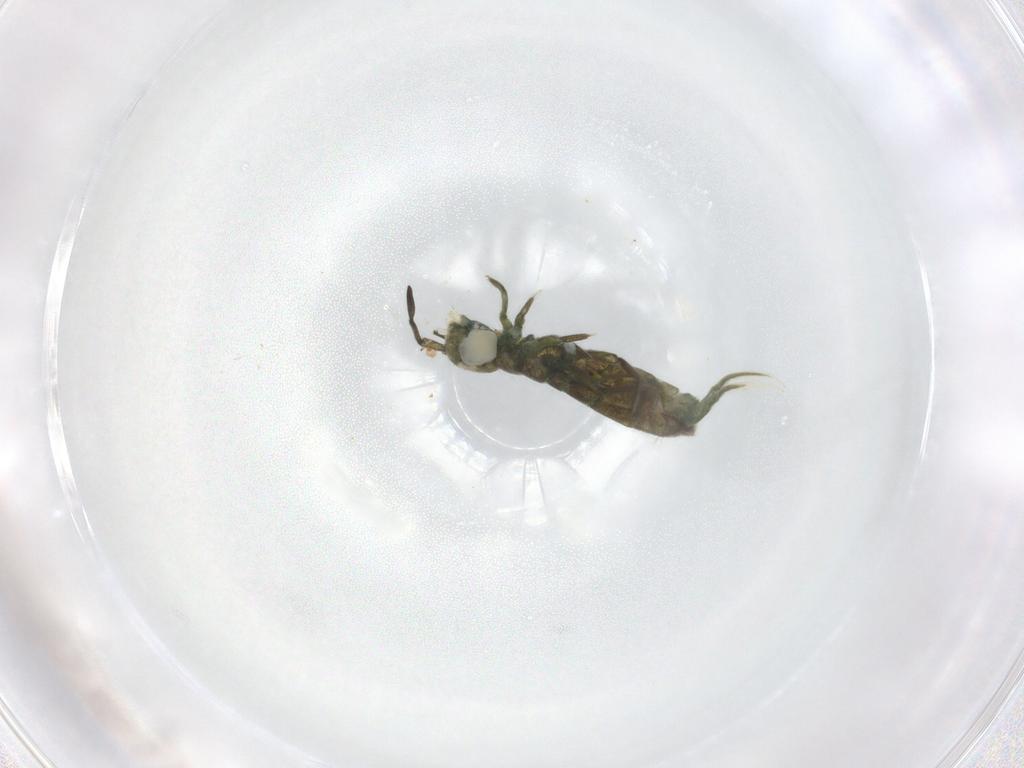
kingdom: Animalia
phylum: Arthropoda
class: Collembola
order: Entomobryomorpha
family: Isotomidae
